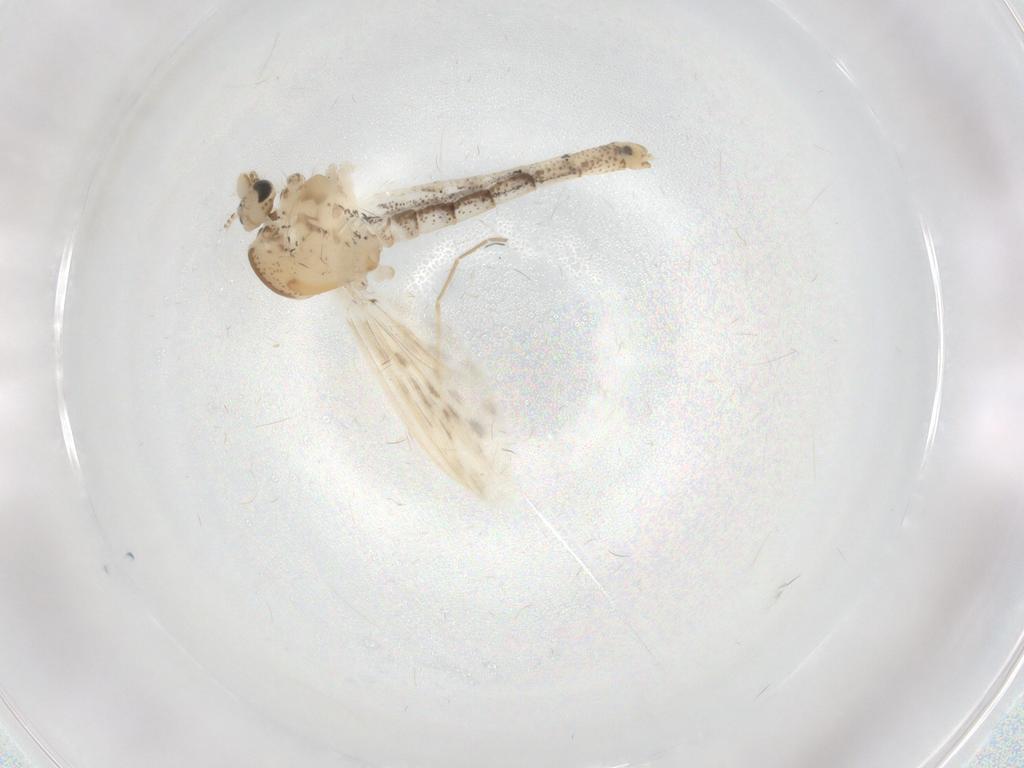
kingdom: Animalia
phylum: Arthropoda
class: Insecta
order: Diptera
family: Chaoboridae
